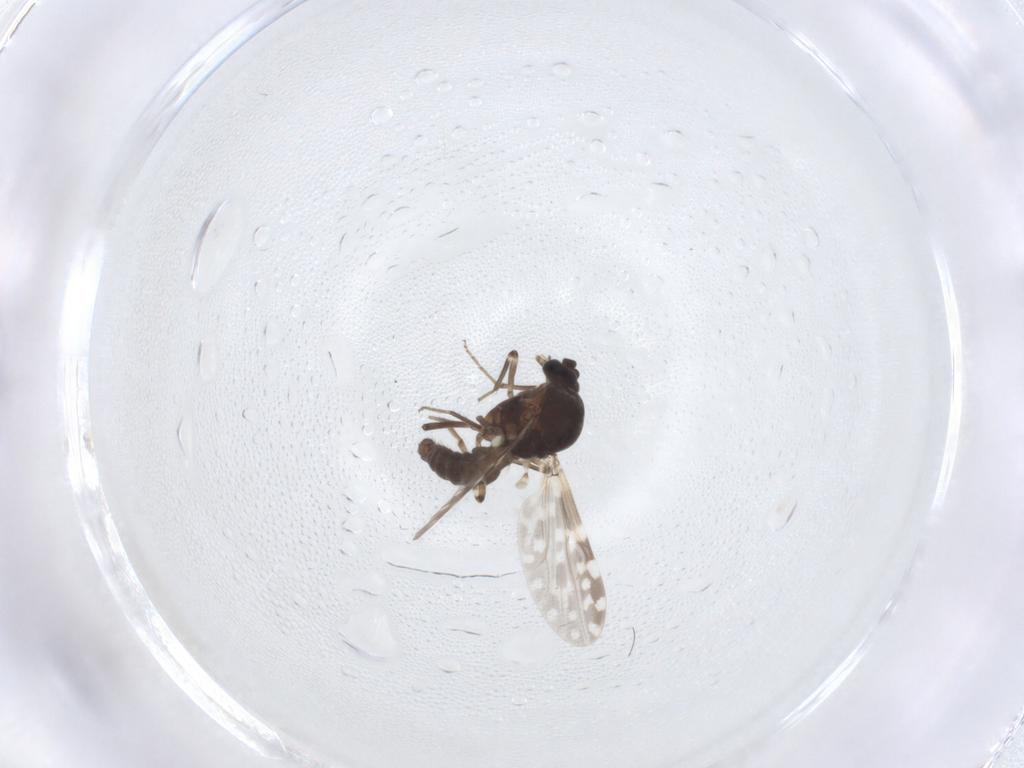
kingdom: Animalia
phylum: Arthropoda
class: Insecta
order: Diptera
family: Ceratopogonidae
